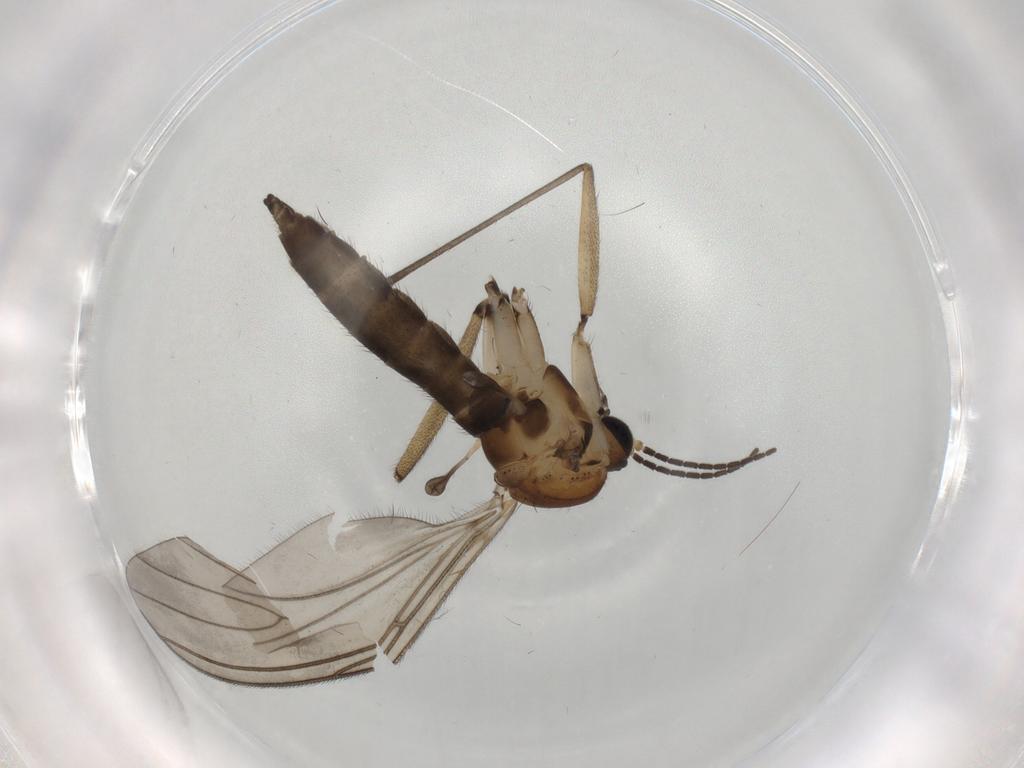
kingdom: Animalia
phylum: Arthropoda
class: Insecta
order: Diptera
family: Sciaridae
